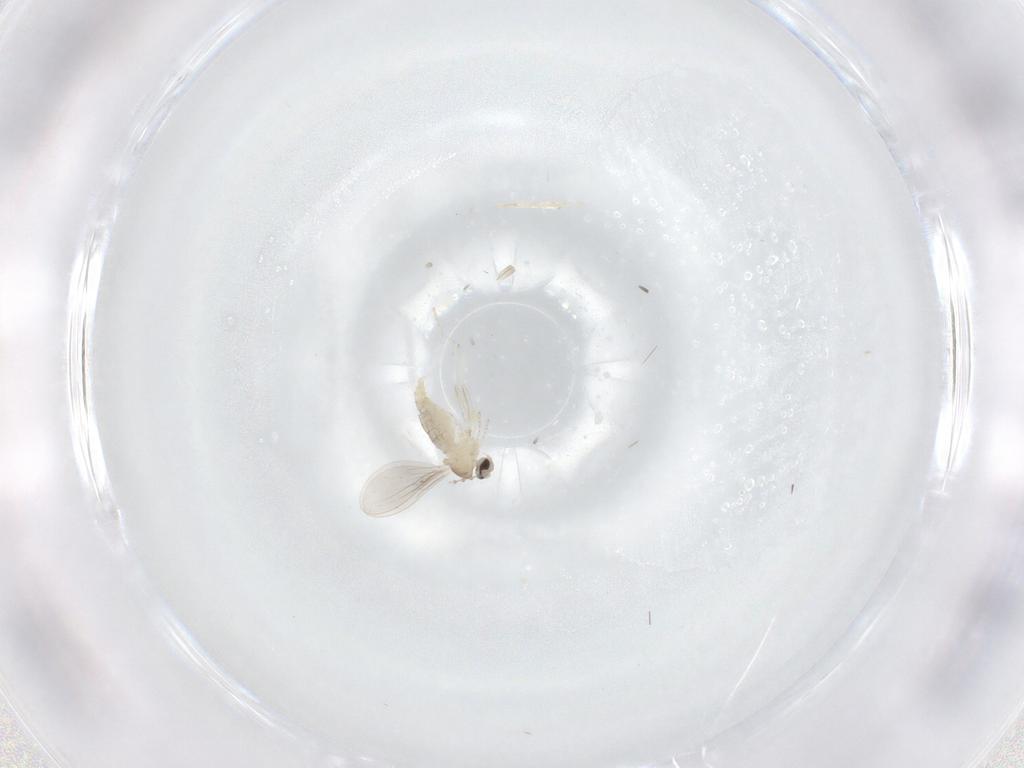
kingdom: Animalia
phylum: Arthropoda
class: Insecta
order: Diptera
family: Cecidomyiidae
